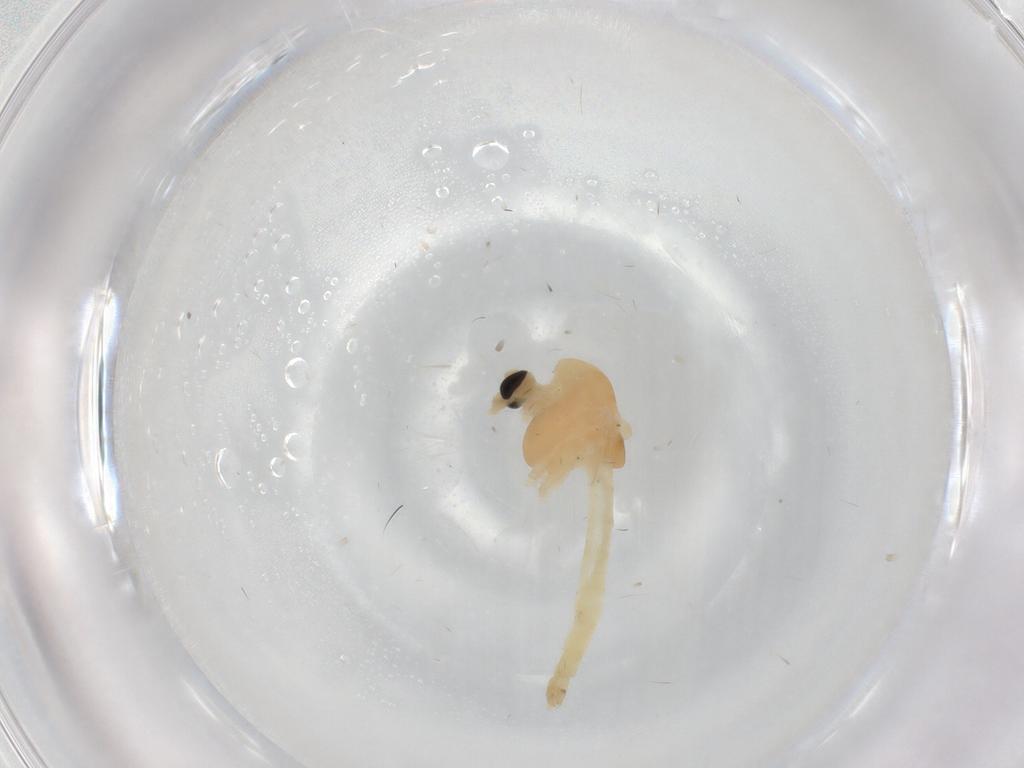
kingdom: Animalia
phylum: Arthropoda
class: Insecta
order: Diptera
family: Chironomidae
